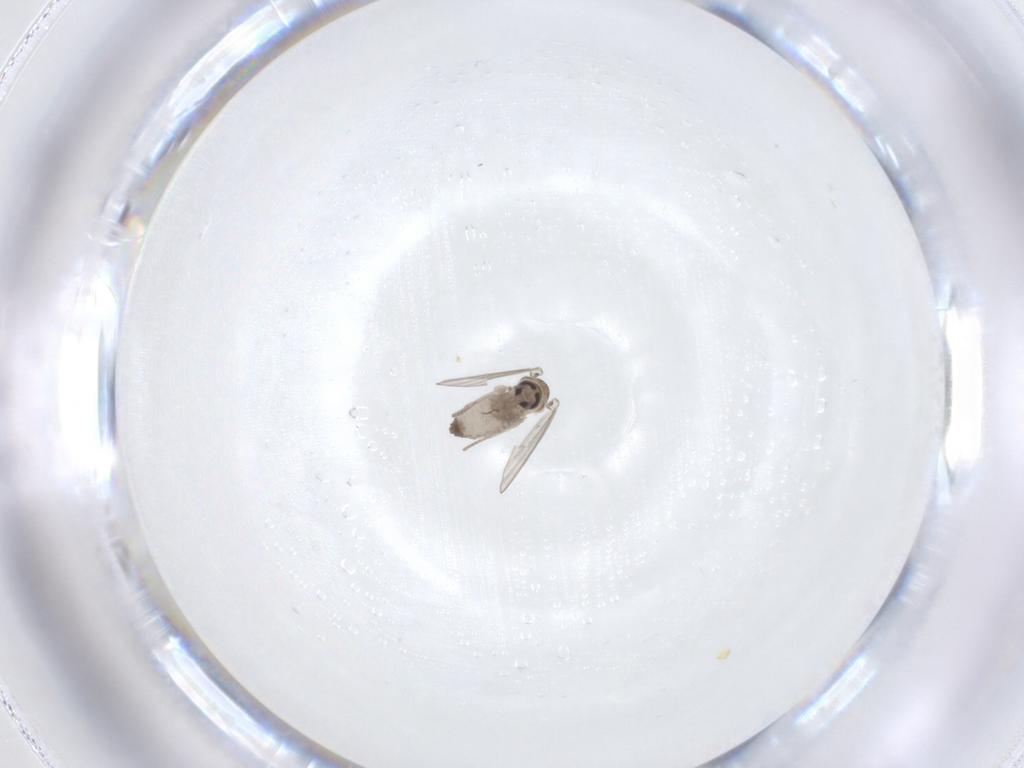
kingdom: Animalia
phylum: Arthropoda
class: Insecta
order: Diptera
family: Psychodidae
